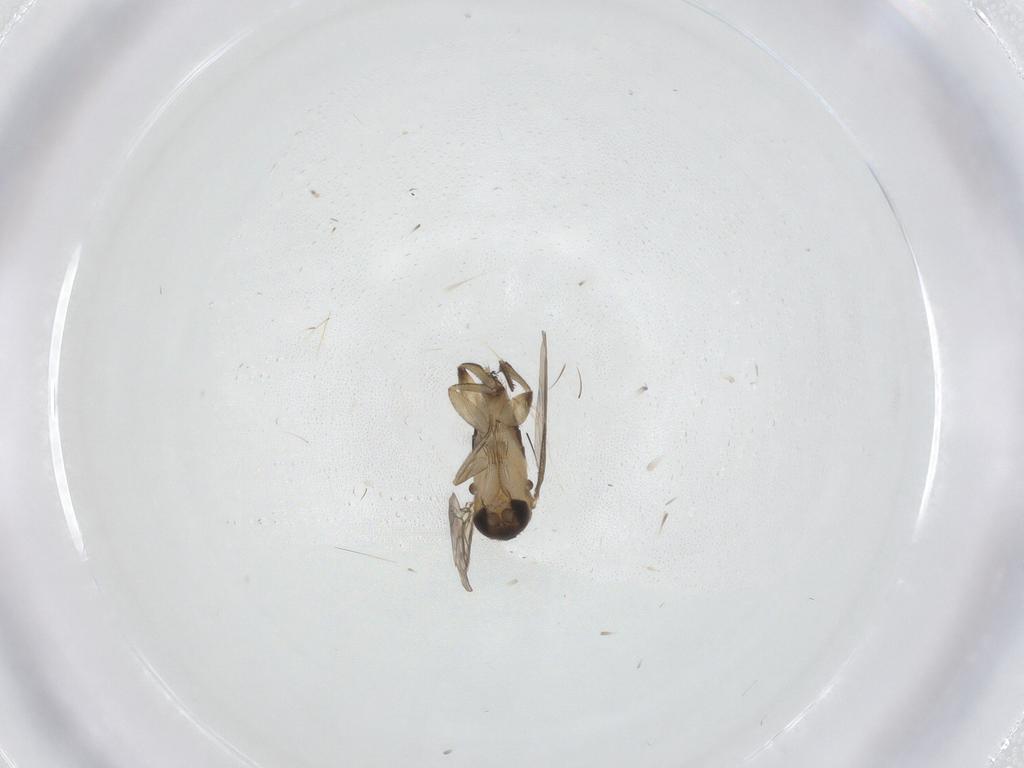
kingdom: Animalia
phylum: Arthropoda
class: Insecta
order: Diptera
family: Phoridae
